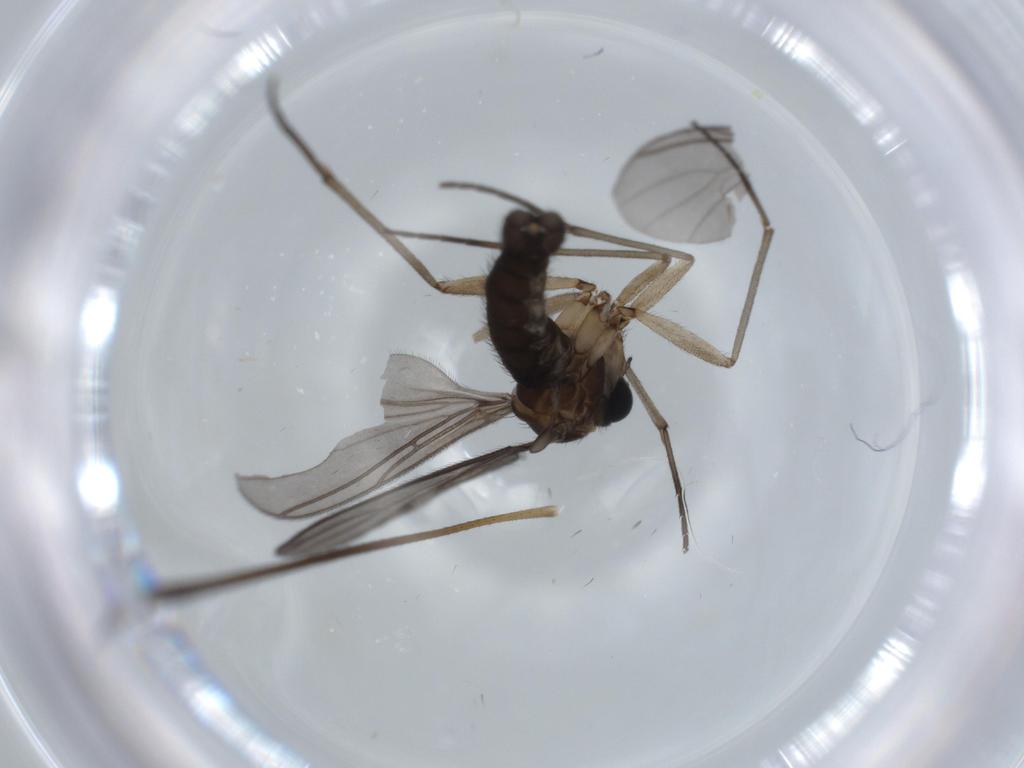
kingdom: Animalia
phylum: Arthropoda
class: Insecta
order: Diptera
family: Sciaridae
